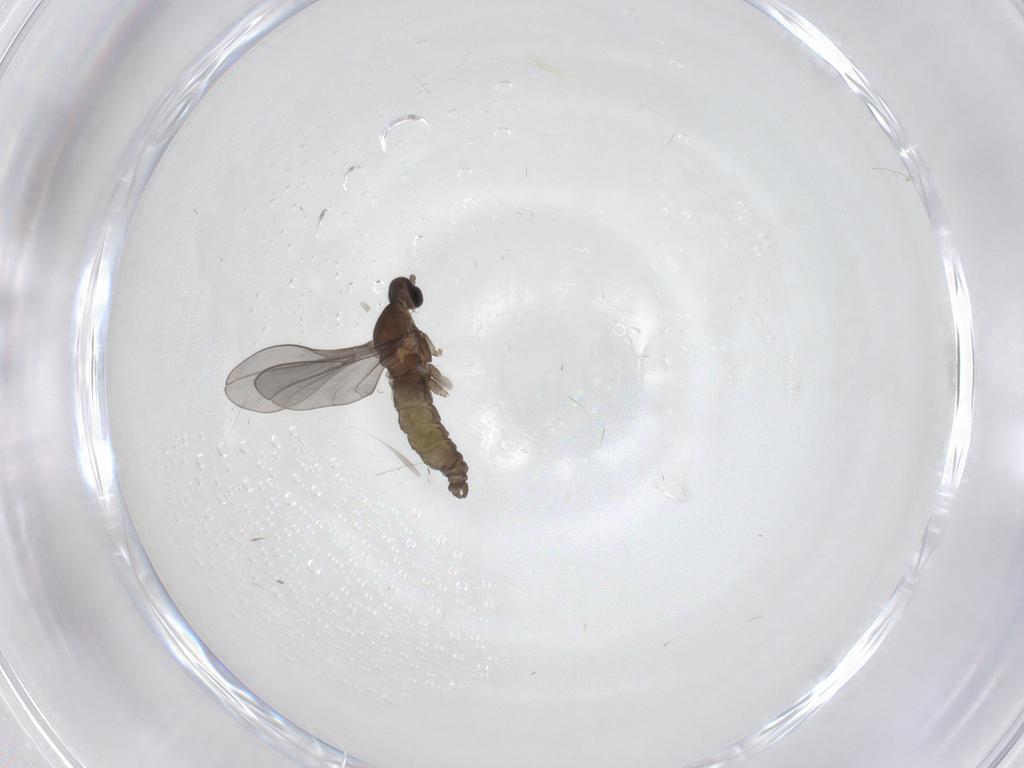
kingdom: Animalia
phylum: Arthropoda
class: Insecta
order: Diptera
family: Cecidomyiidae
